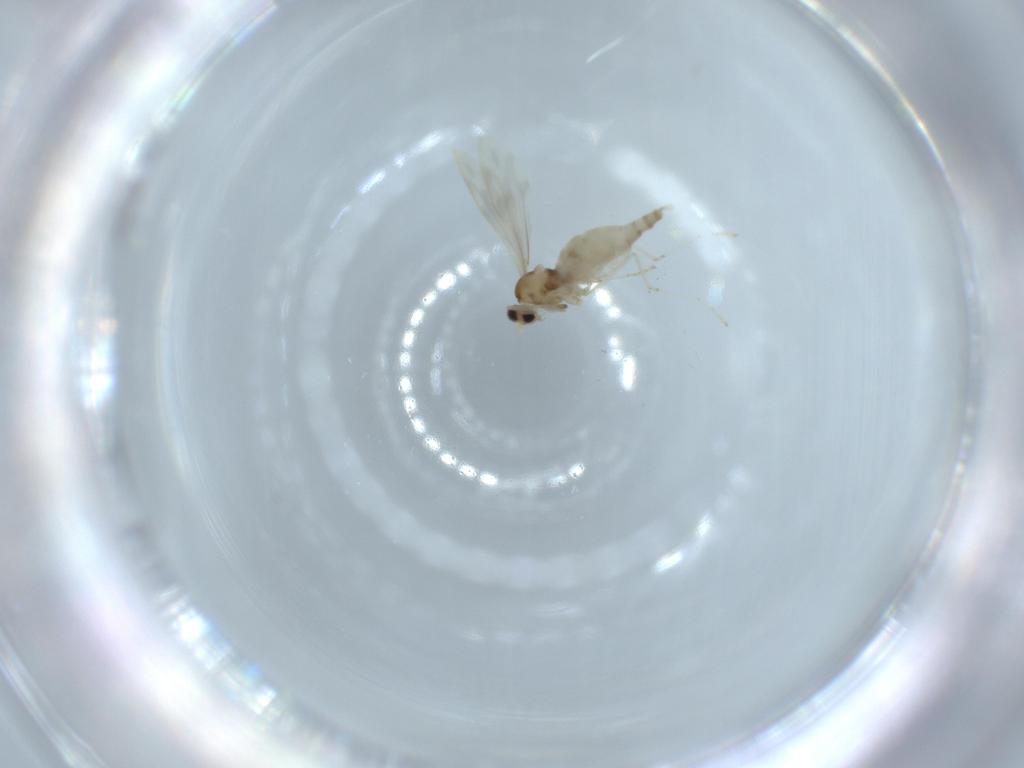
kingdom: Animalia
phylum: Arthropoda
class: Insecta
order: Diptera
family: Cecidomyiidae
